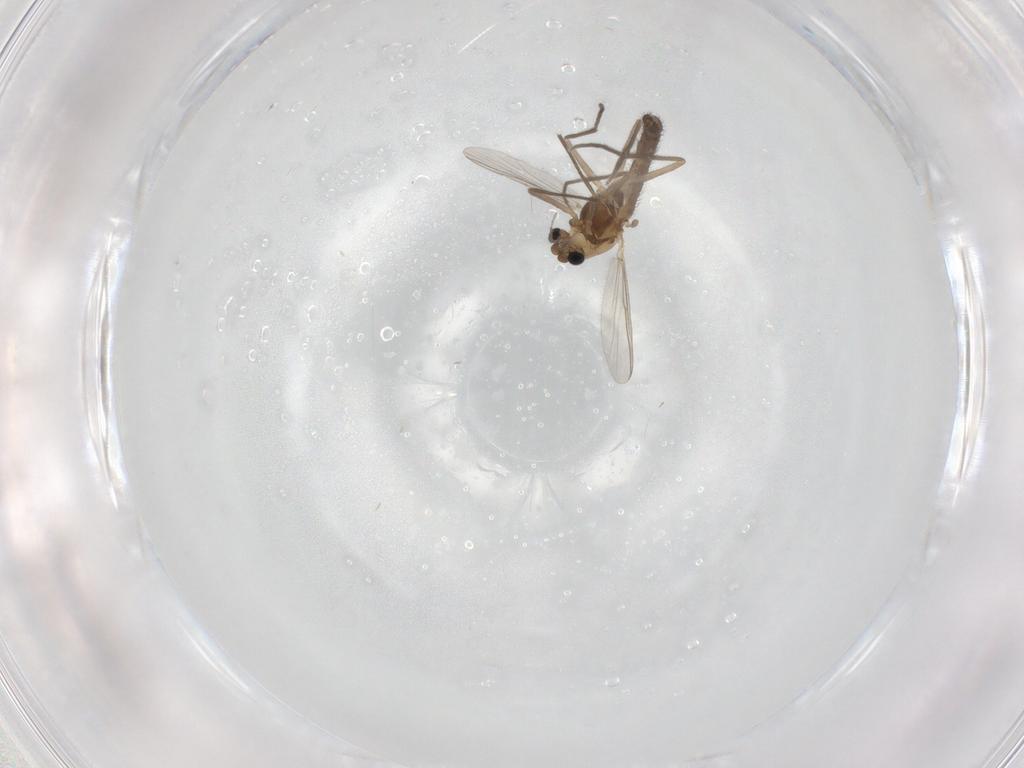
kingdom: Animalia
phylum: Arthropoda
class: Insecta
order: Diptera
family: Chironomidae
